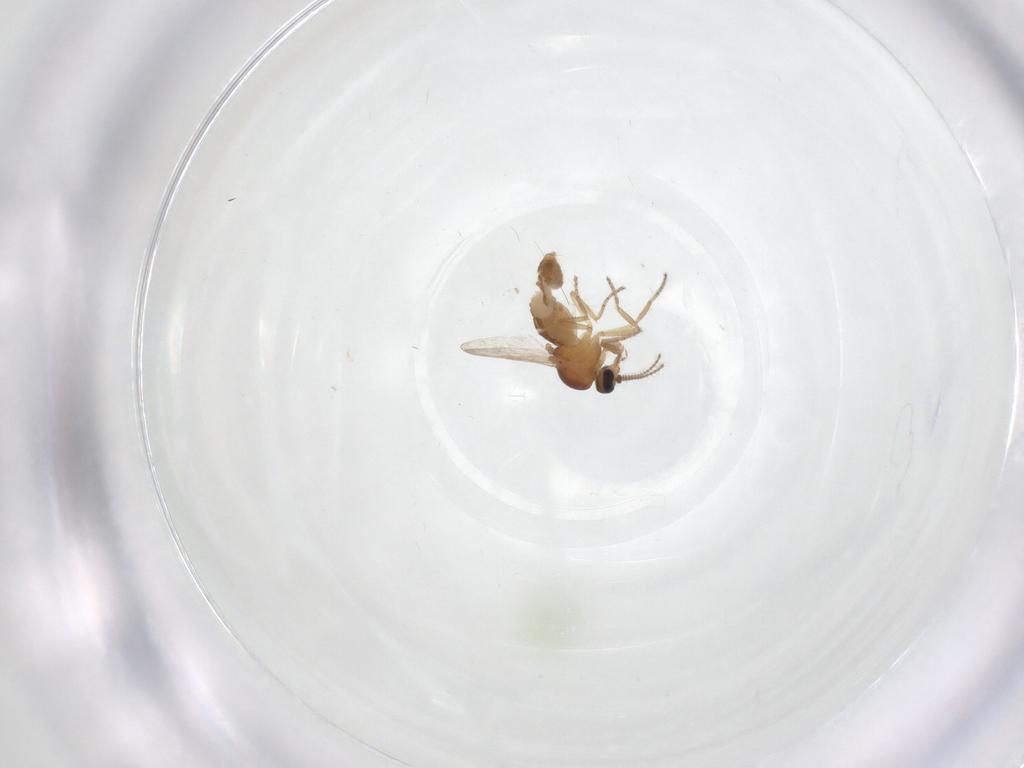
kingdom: Animalia
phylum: Arthropoda
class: Insecta
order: Diptera
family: Ceratopogonidae
